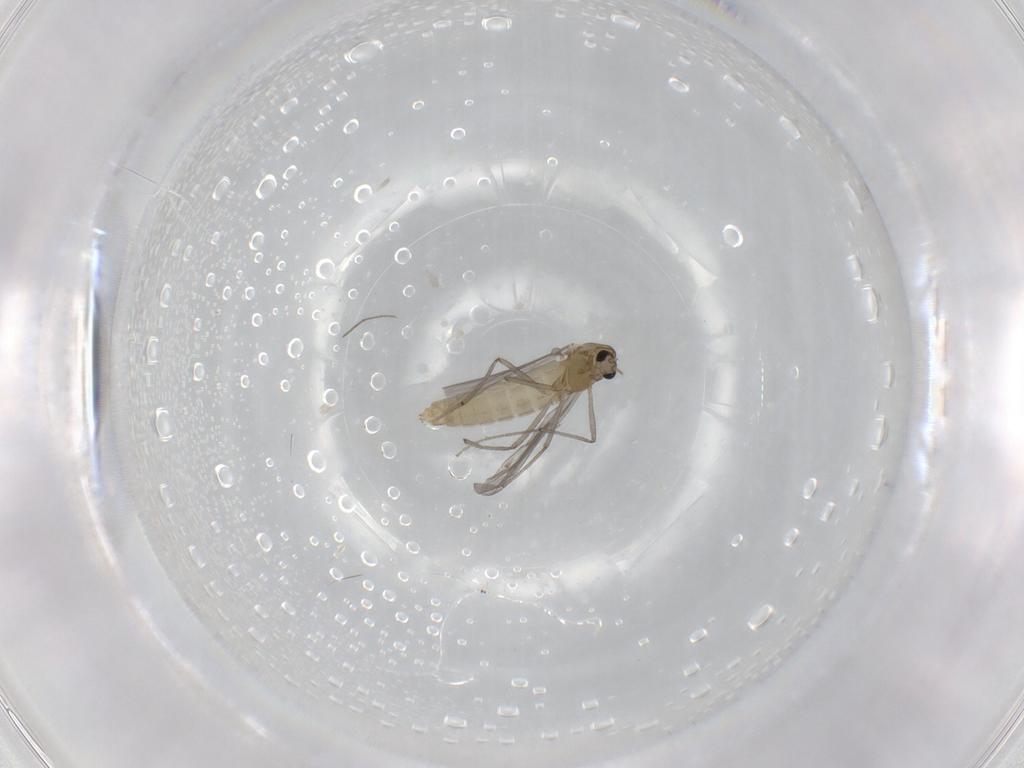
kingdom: Animalia
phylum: Arthropoda
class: Insecta
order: Diptera
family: Chironomidae
